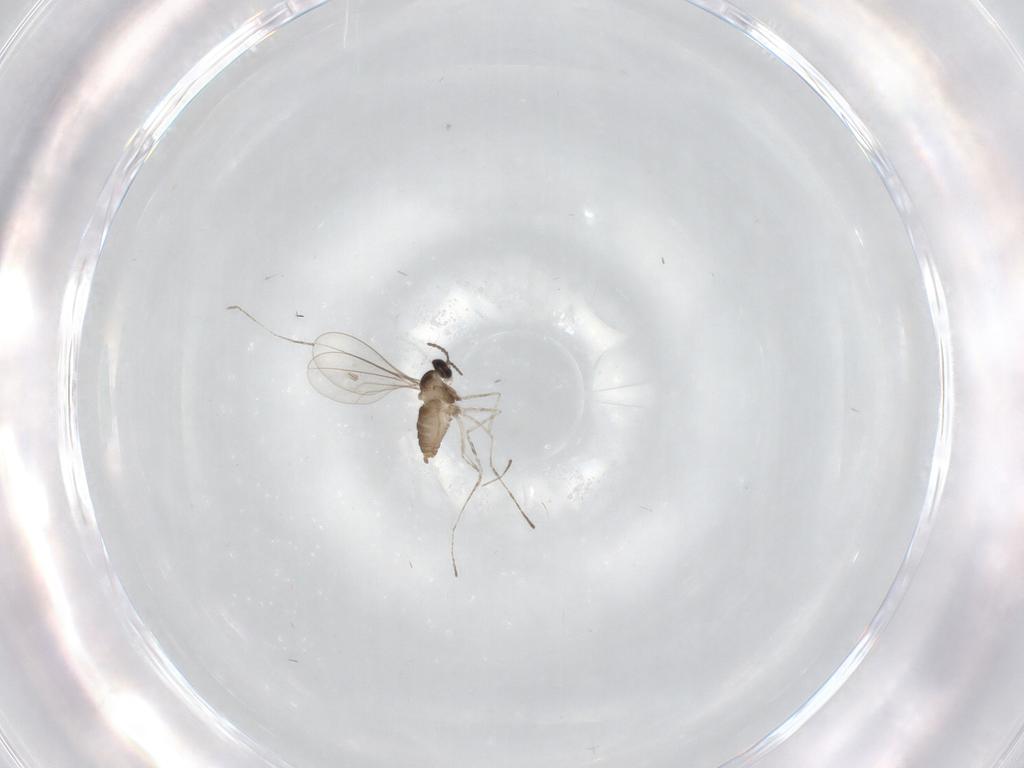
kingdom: Animalia
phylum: Arthropoda
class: Insecta
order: Diptera
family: Cecidomyiidae
